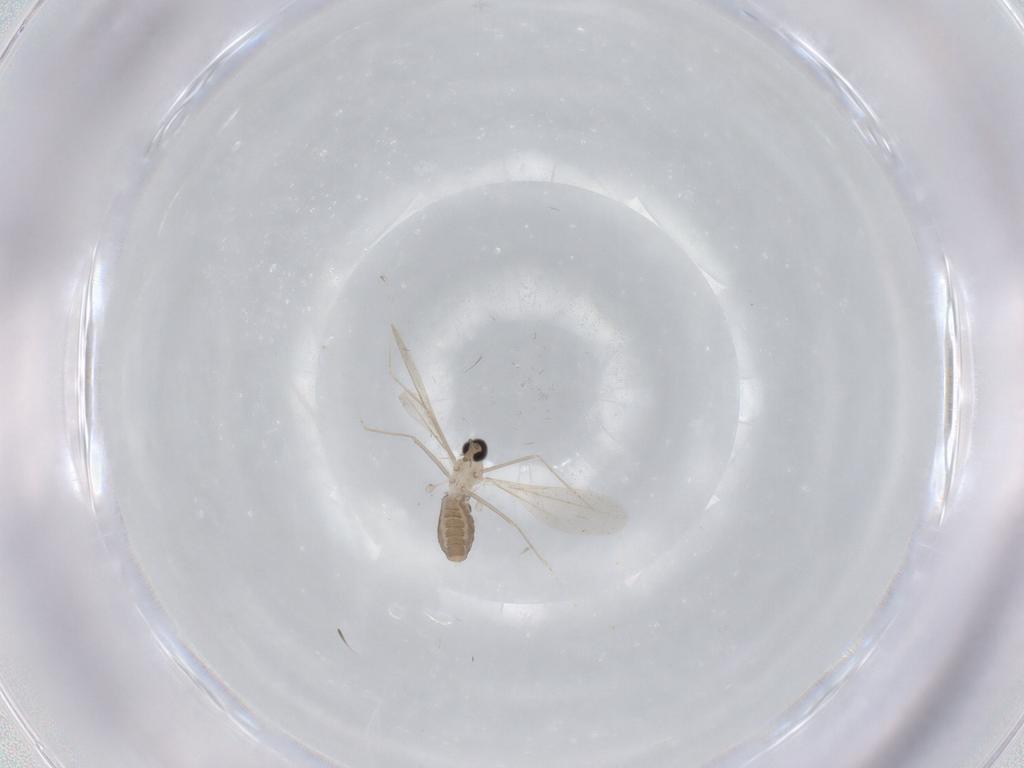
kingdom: Animalia
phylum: Arthropoda
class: Insecta
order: Diptera
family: Cecidomyiidae
